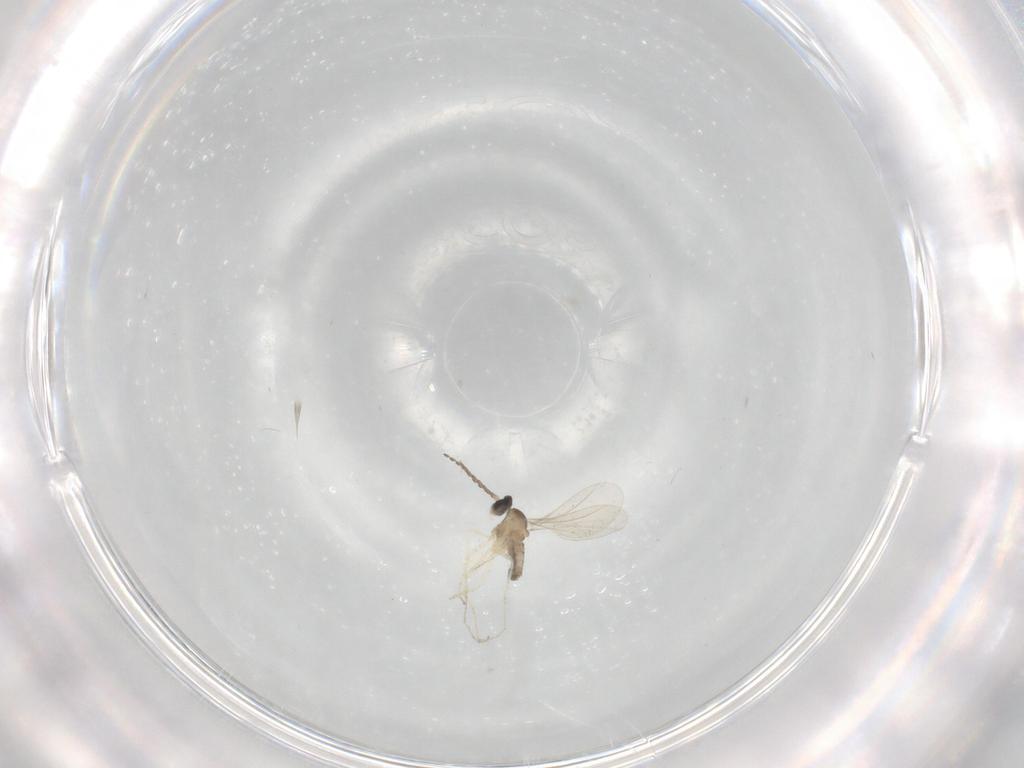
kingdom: Animalia
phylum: Arthropoda
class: Insecta
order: Diptera
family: Cecidomyiidae
